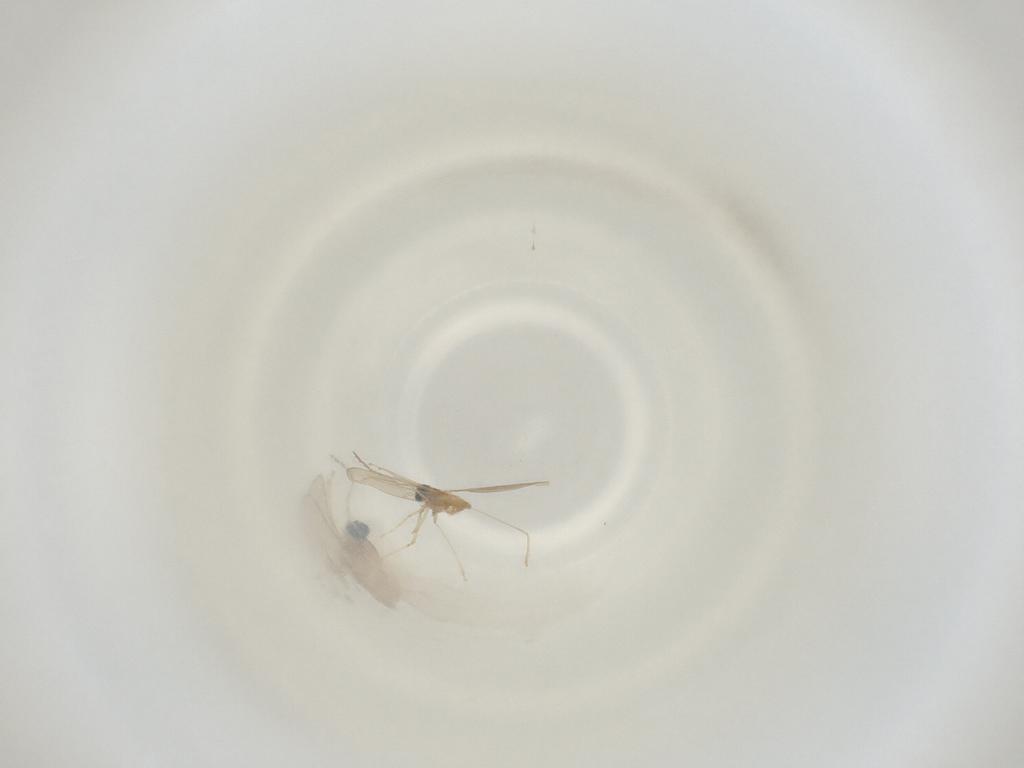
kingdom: Animalia
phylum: Arthropoda
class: Insecta
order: Diptera
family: Cecidomyiidae
